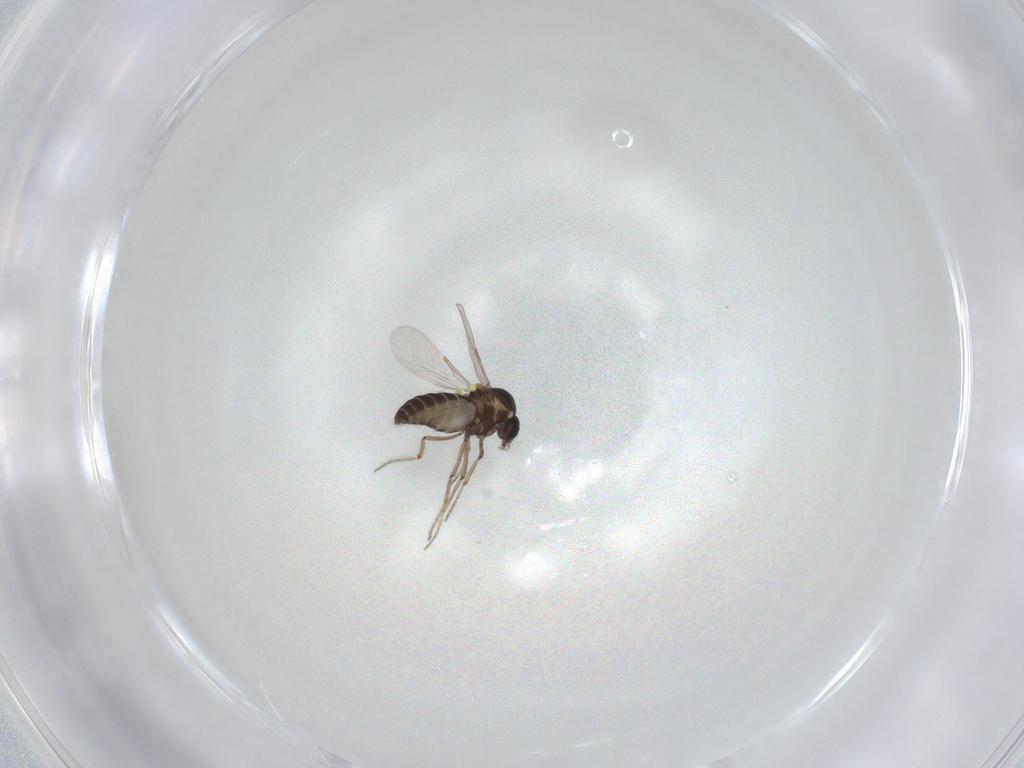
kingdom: Animalia
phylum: Arthropoda
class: Insecta
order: Diptera
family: Ceratopogonidae
